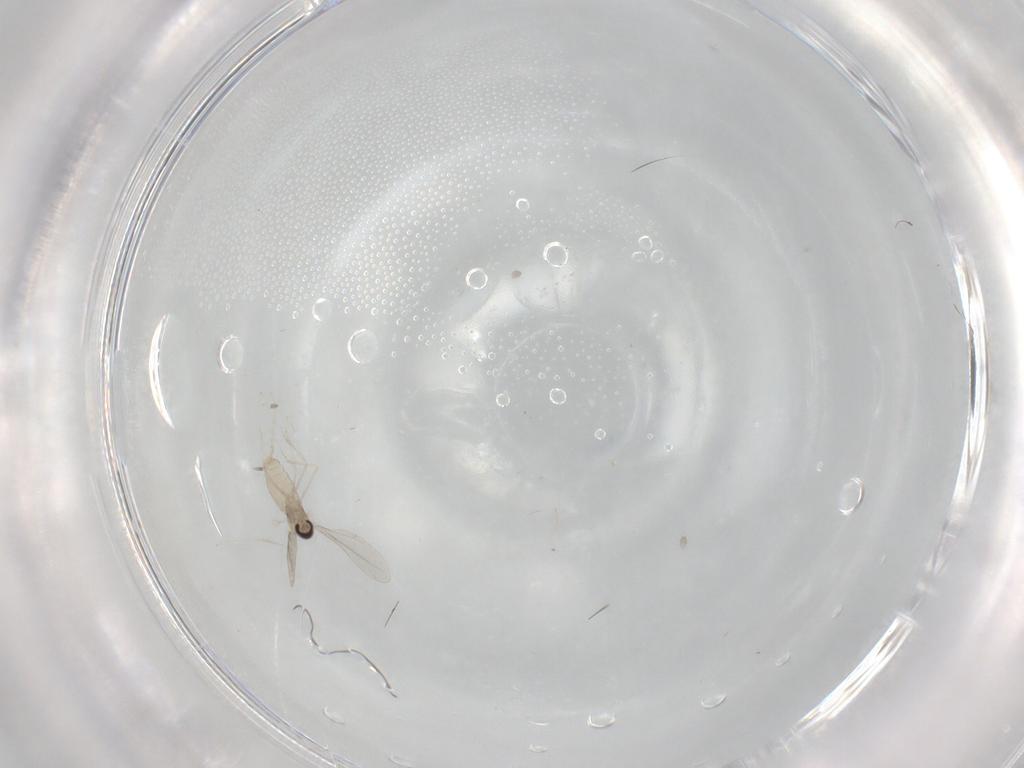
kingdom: Animalia
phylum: Arthropoda
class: Insecta
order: Diptera
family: Cecidomyiidae
